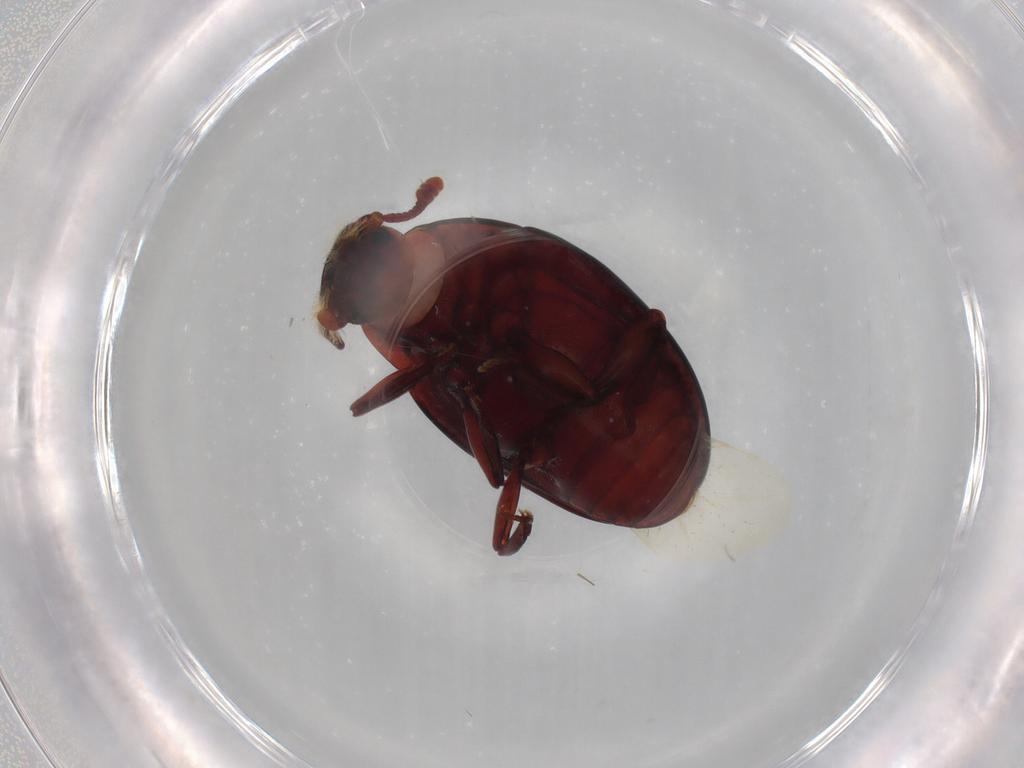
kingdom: Animalia
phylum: Arthropoda
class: Insecta
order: Coleoptera
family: Zopheridae
